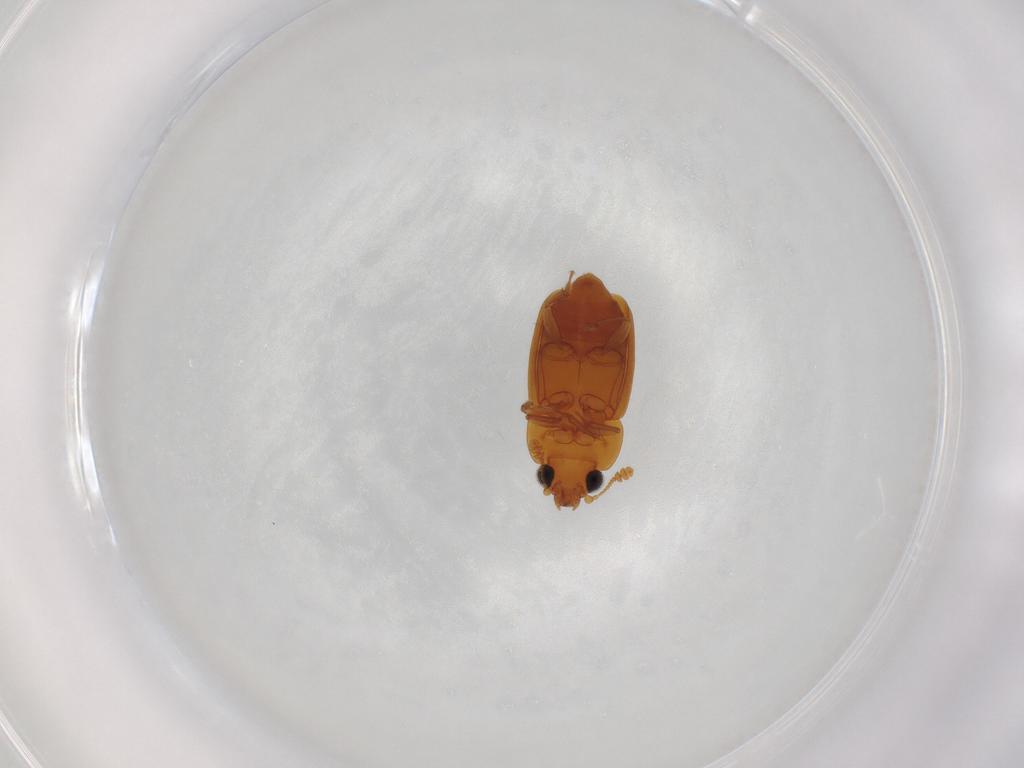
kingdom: Animalia
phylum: Arthropoda
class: Insecta
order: Coleoptera
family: Nitidulidae
